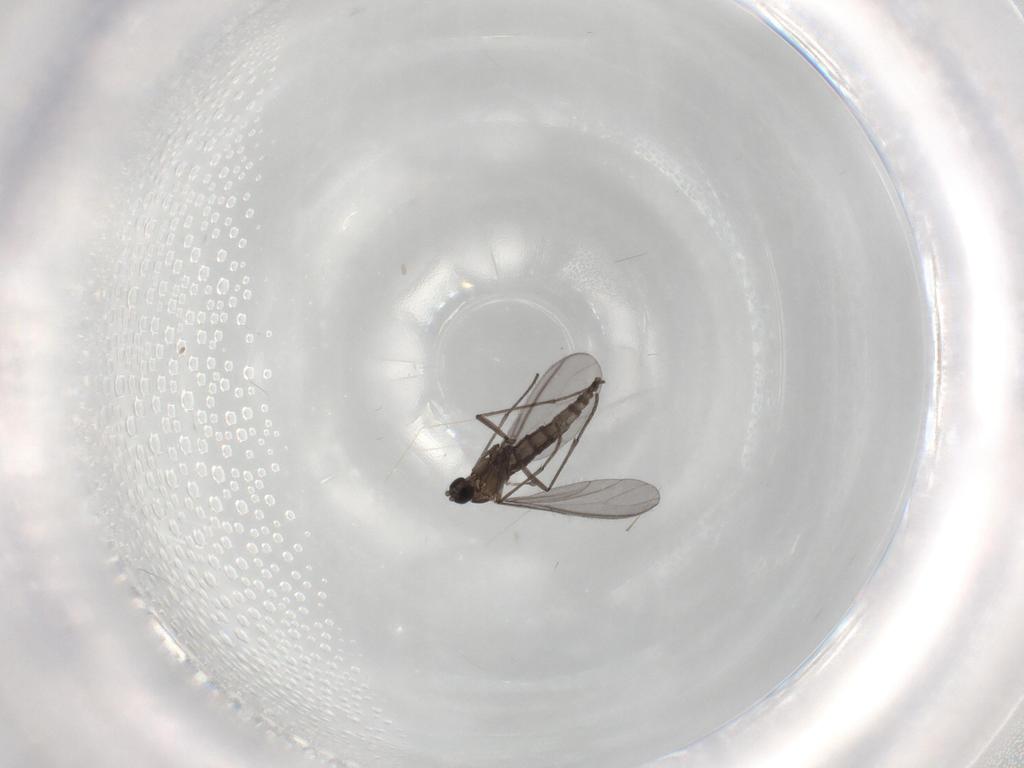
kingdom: Animalia
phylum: Arthropoda
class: Insecta
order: Diptera
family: Sciaridae
